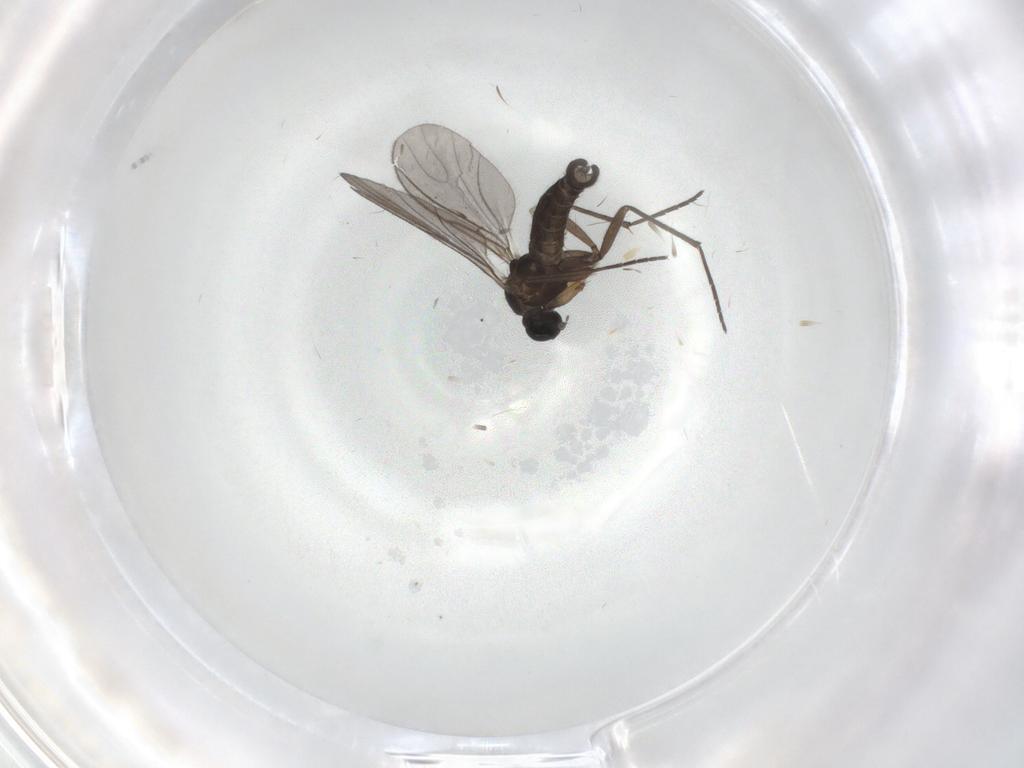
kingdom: Animalia
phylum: Arthropoda
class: Insecta
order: Diptera
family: Sciaridae
